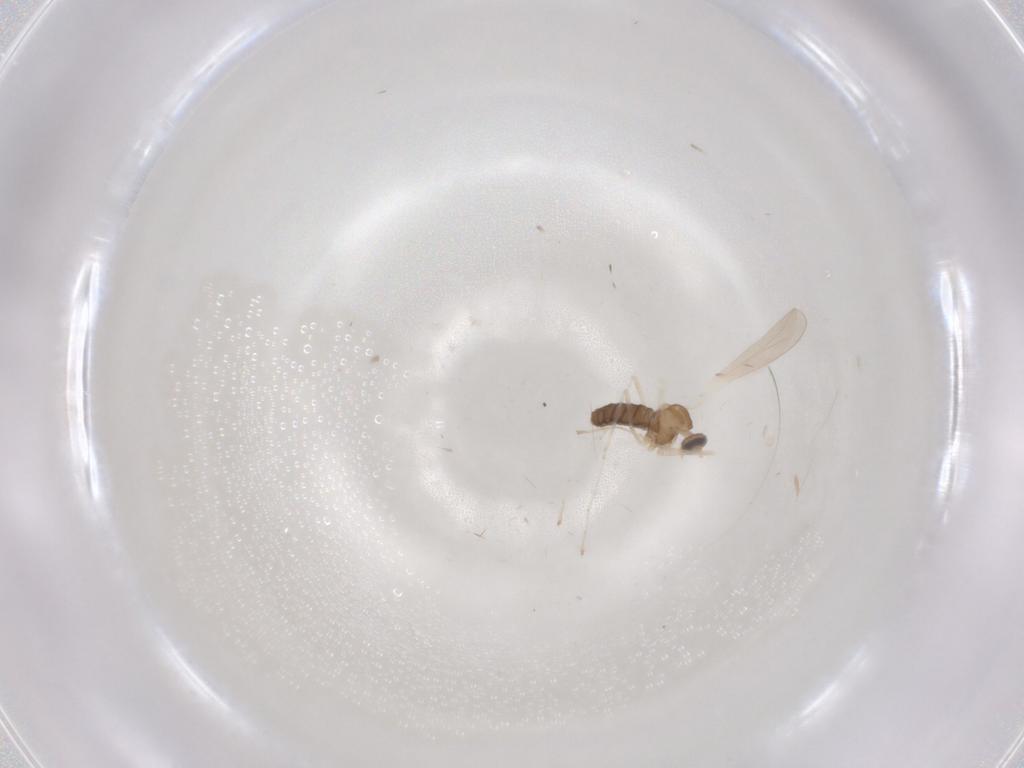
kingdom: Animalia
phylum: Arthropoda
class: Insecta
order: Diptera
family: Cecidomyiidae
